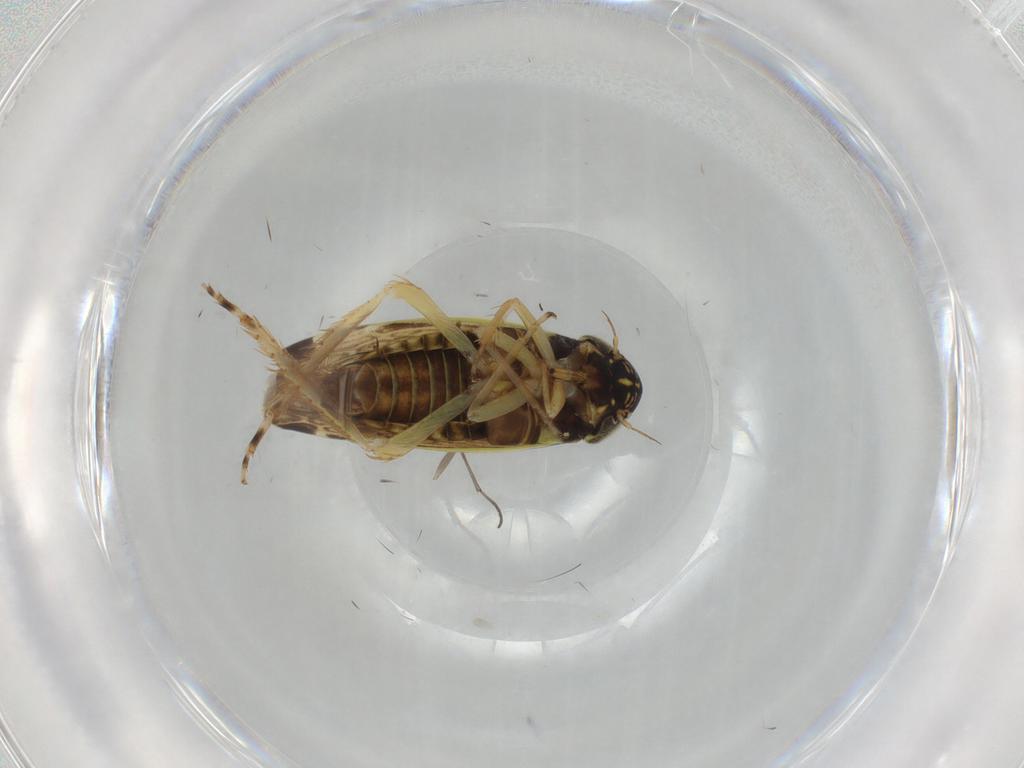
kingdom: Animalia
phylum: Arthropoda
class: Insecta
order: Hemiptera
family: Cicadellidae
